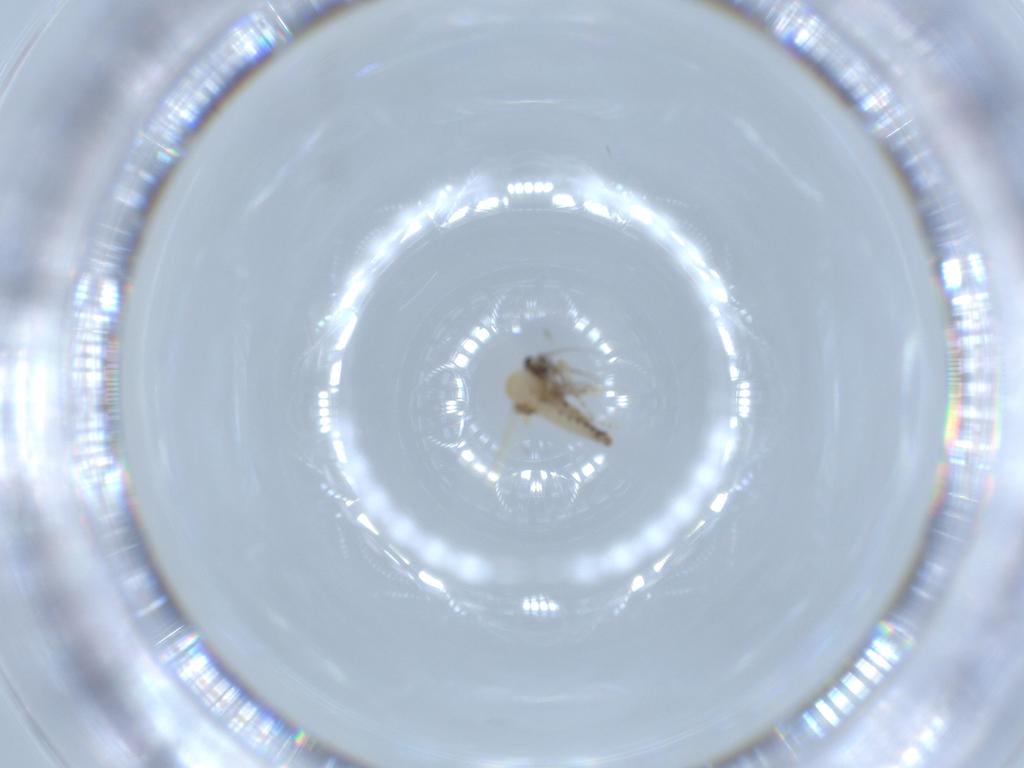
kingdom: Animalia
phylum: Arthropoda
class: Insecta
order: Diptera
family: Ceratopogonidae
